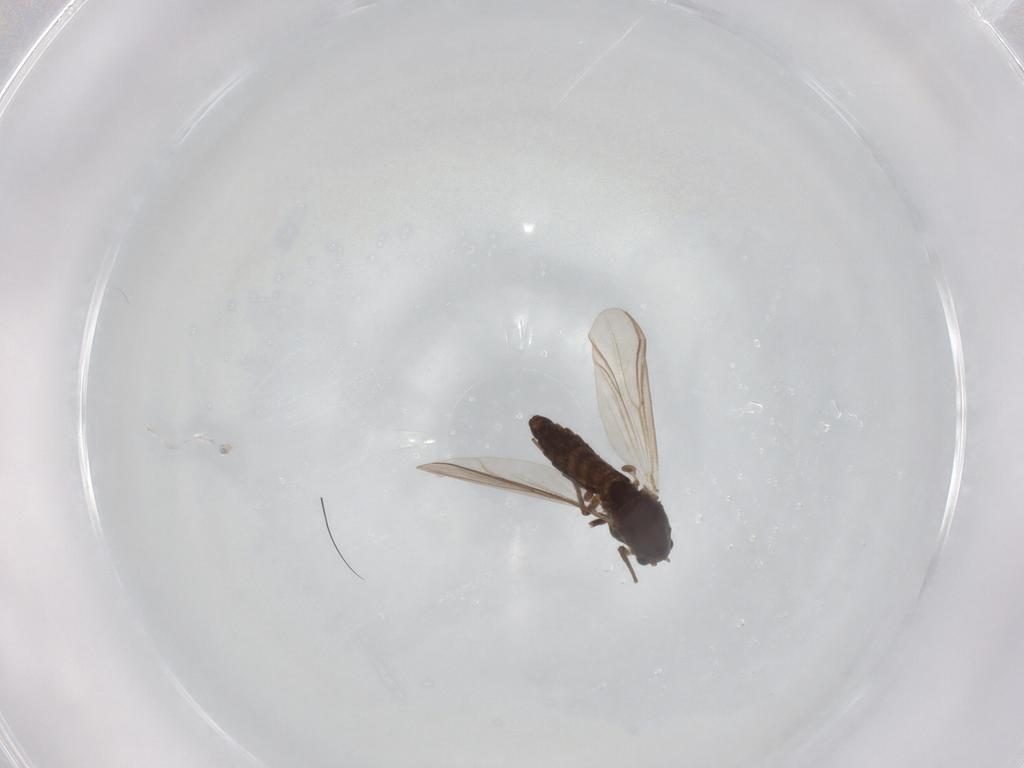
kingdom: Animalia
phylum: Arthropoda
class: Insecta
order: Diptera
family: Chironomidae
